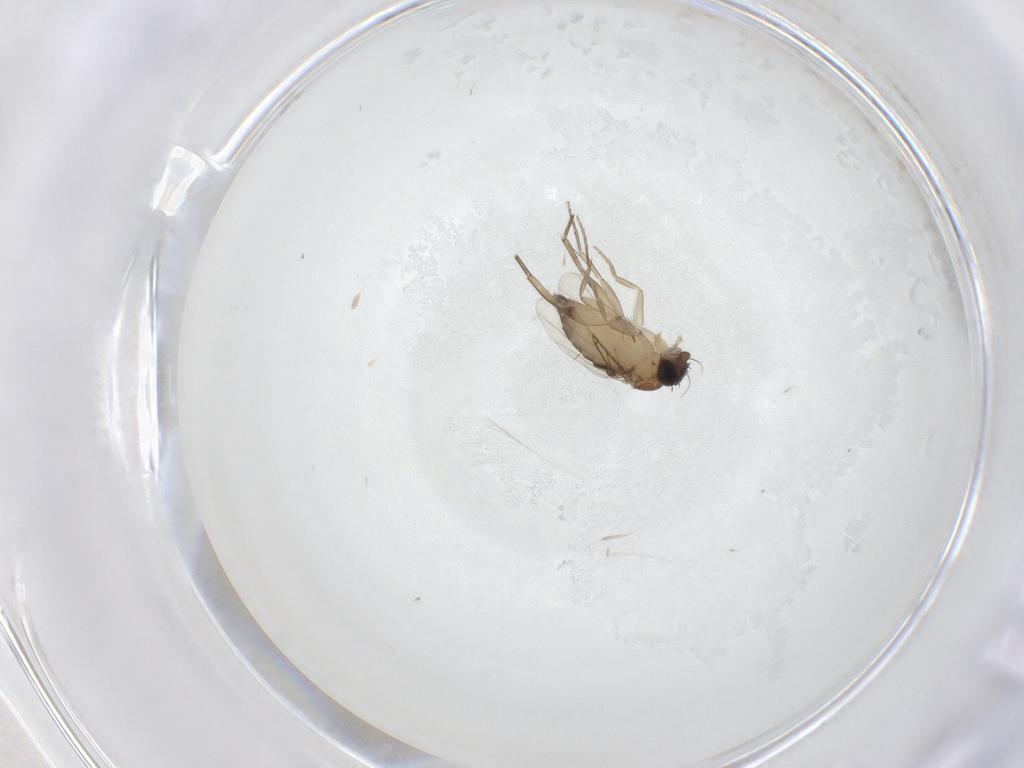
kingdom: Animalia
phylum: Arthropoda
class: Insecta
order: Diptera
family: Phoridae
